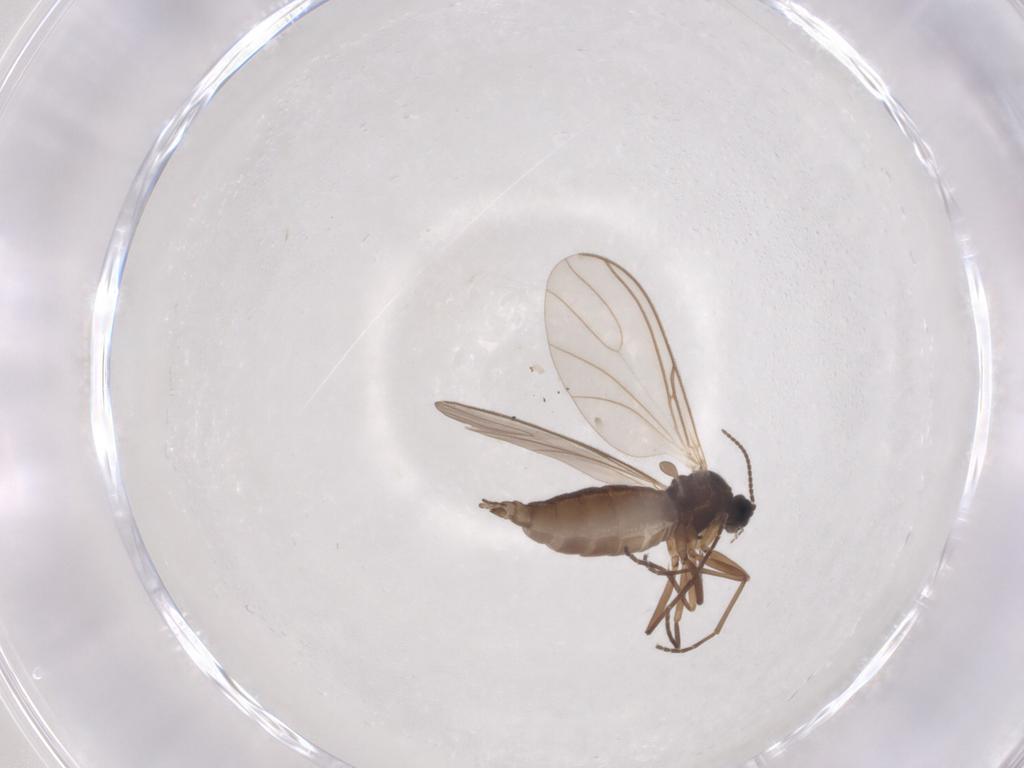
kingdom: Animalia
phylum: Arthropoda
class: Insecta
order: Diptera
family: Sciaridae
